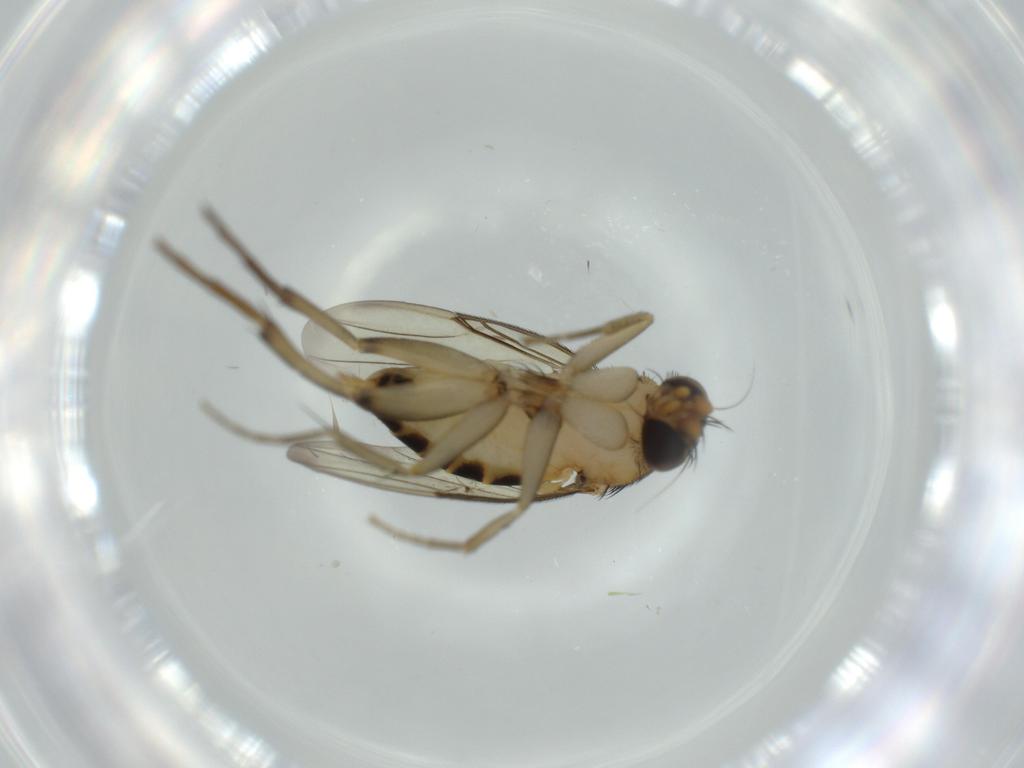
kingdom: Animalia
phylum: Arthropoda
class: Insecta
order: Diptera
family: Phoridae
